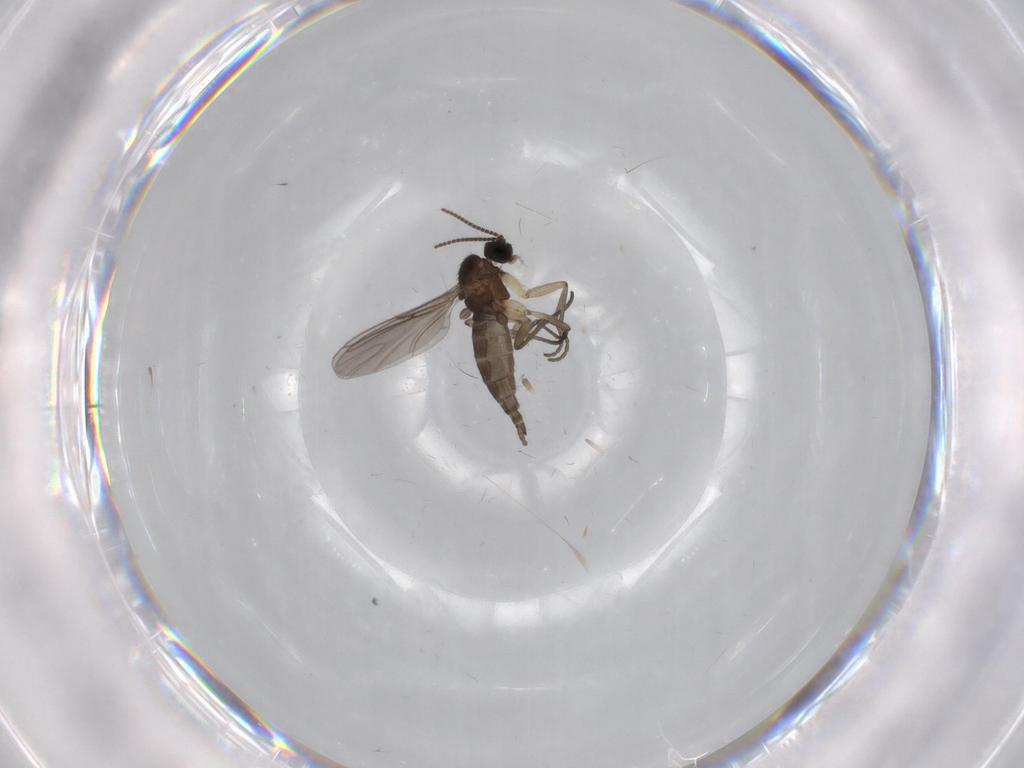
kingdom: Animalia
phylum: Arthropoda
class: Insecta
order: Diptera
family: Sciaridae
